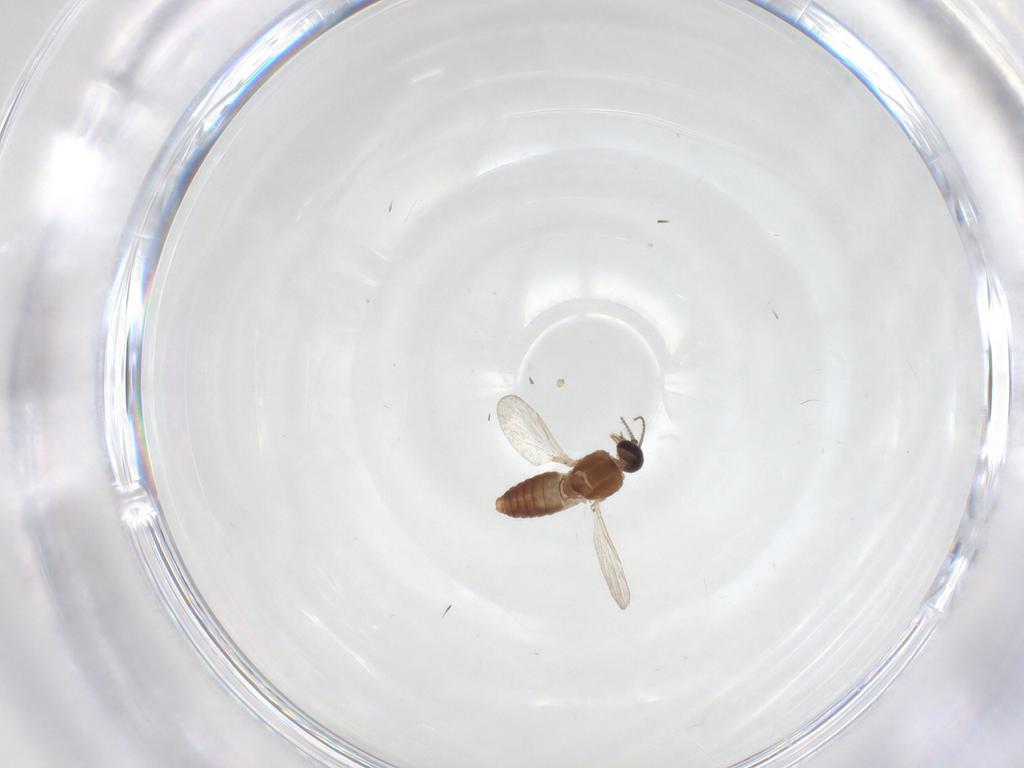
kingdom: Animalia
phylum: Arthropoda
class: Insecta
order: Diptera
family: Ceratopogonidae
